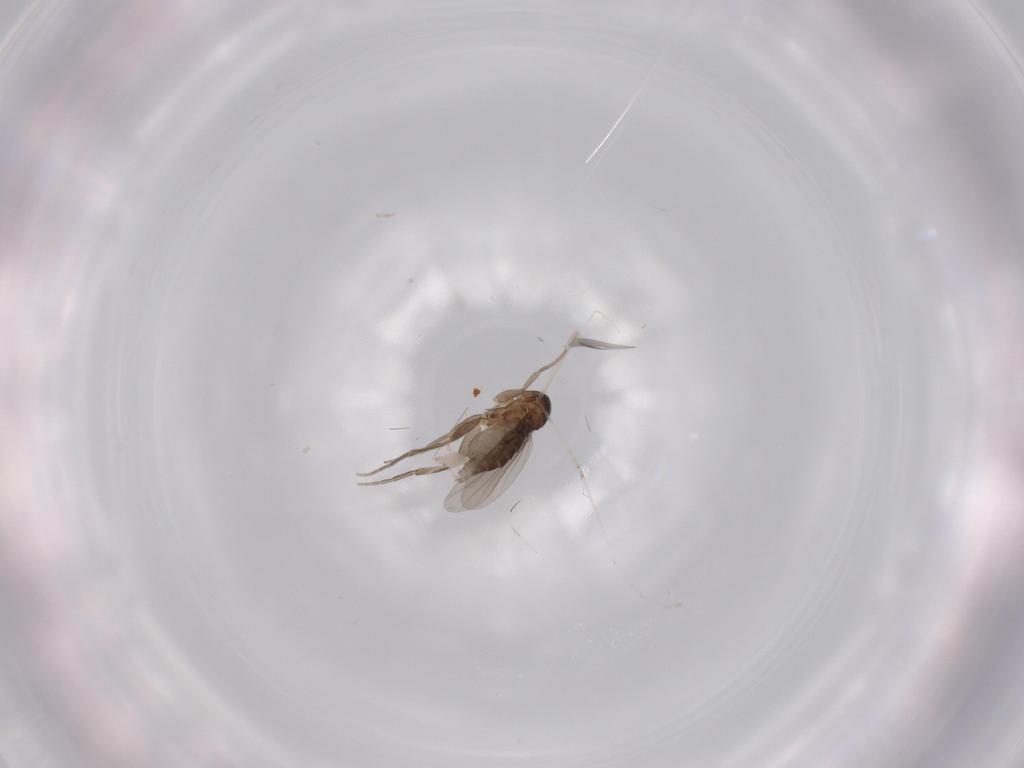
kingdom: Animalia
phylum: Arthropoda
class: Insecta
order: Diptera
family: Phoridae
